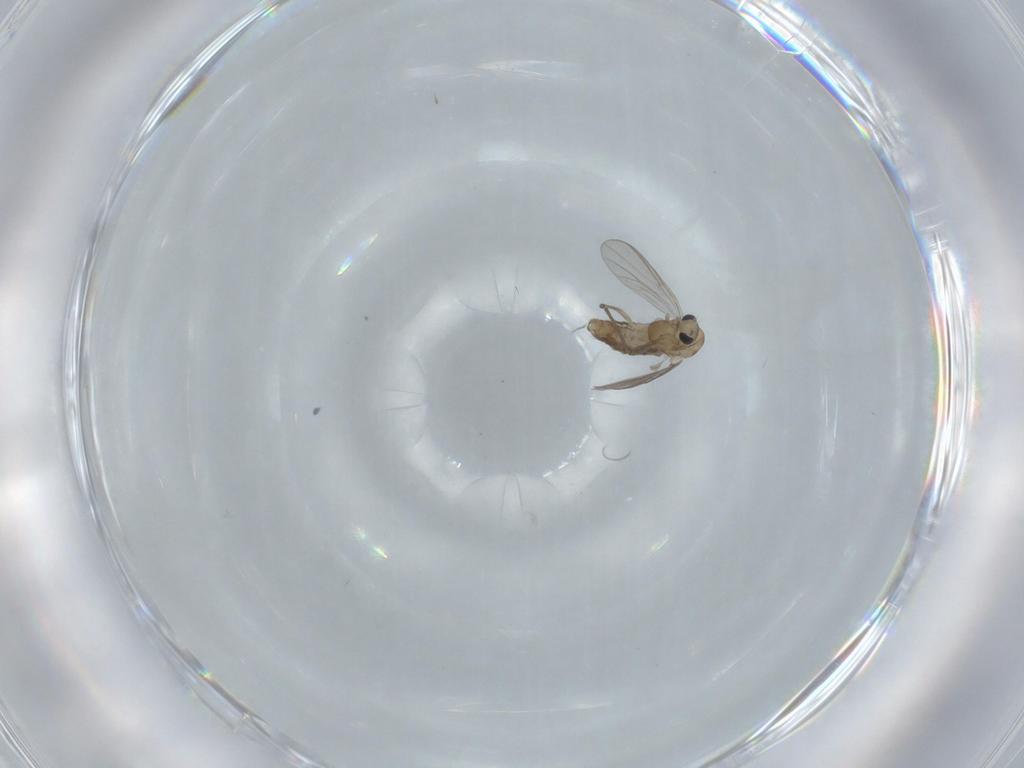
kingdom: Animalia
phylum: Arthropoda
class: Insecta
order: Diptera
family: Chironomidae
